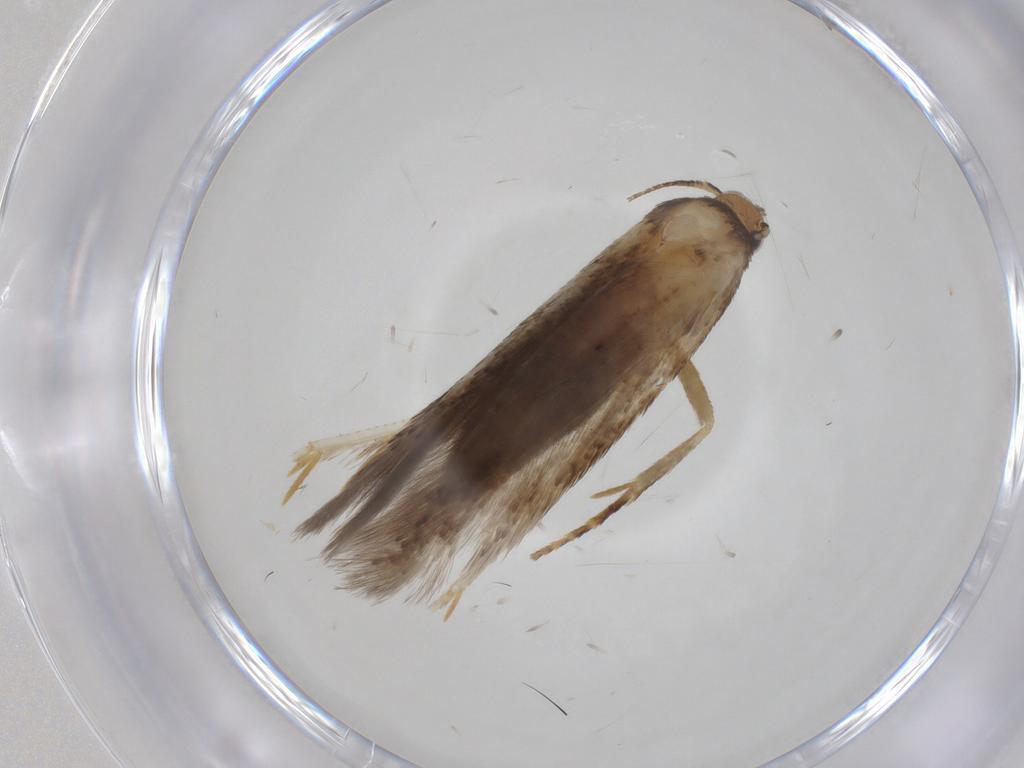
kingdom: Animalia
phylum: Arthropoda
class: Insecta
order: Lepidoptera
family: Gelechiidae
